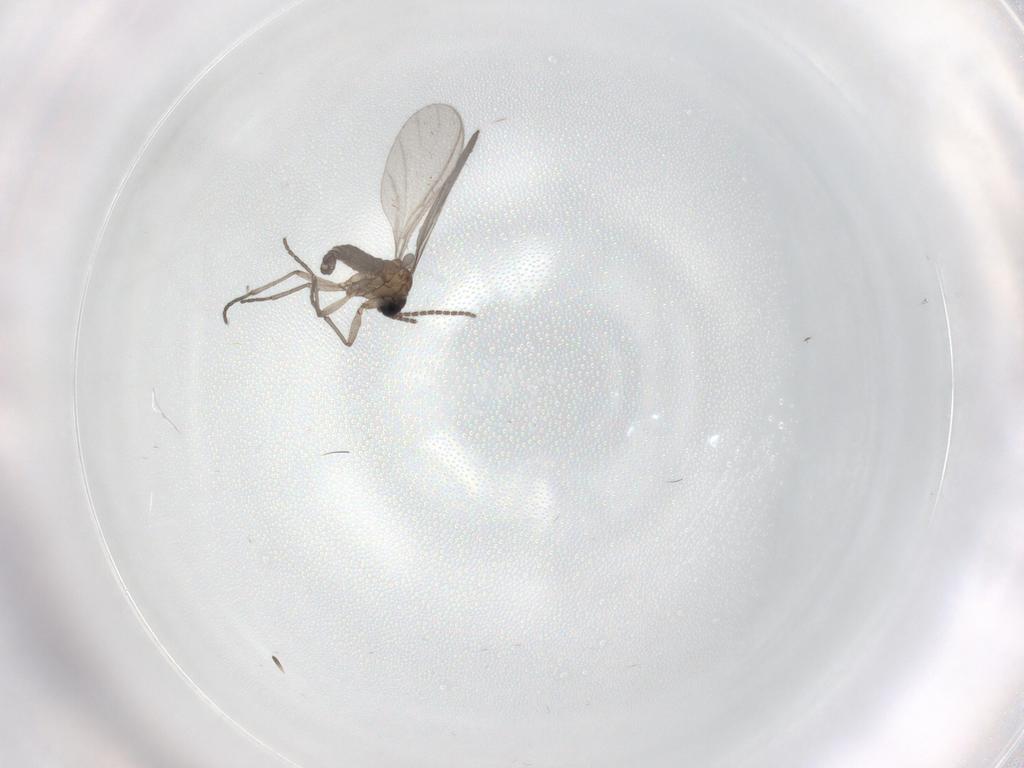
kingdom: Animalia
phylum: Arthropoda
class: Insecta
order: Diptera
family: Sciaridae
